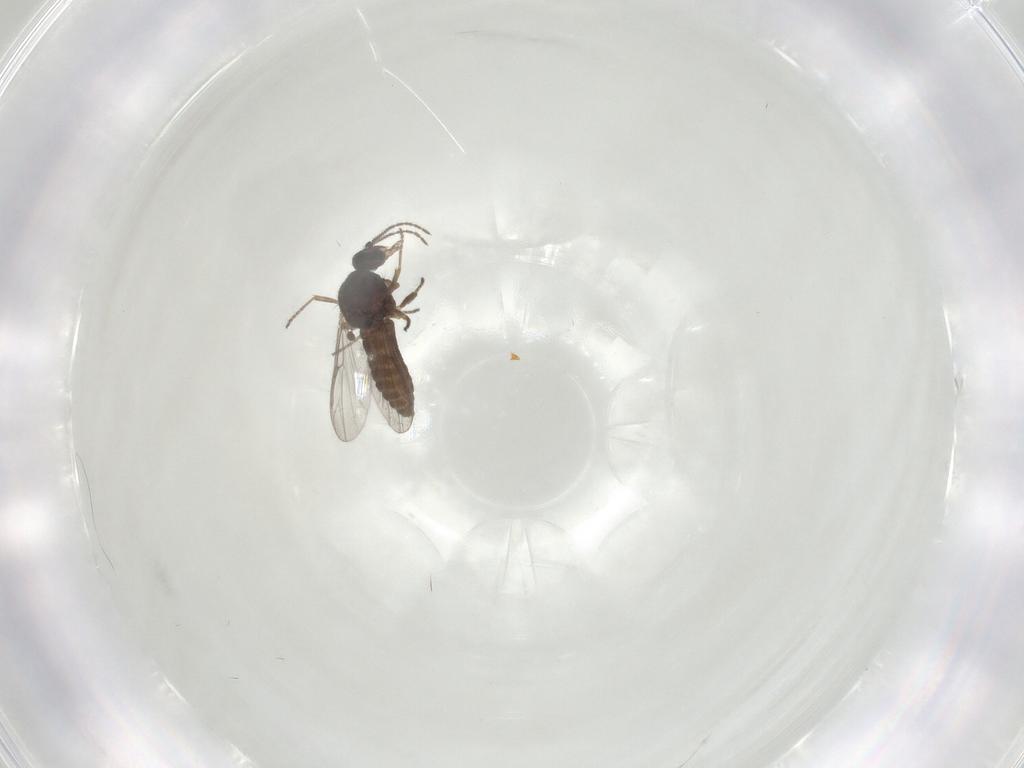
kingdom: Animalia
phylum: Arthropoda
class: Insecta
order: Diptera
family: Ceratopogonidae
